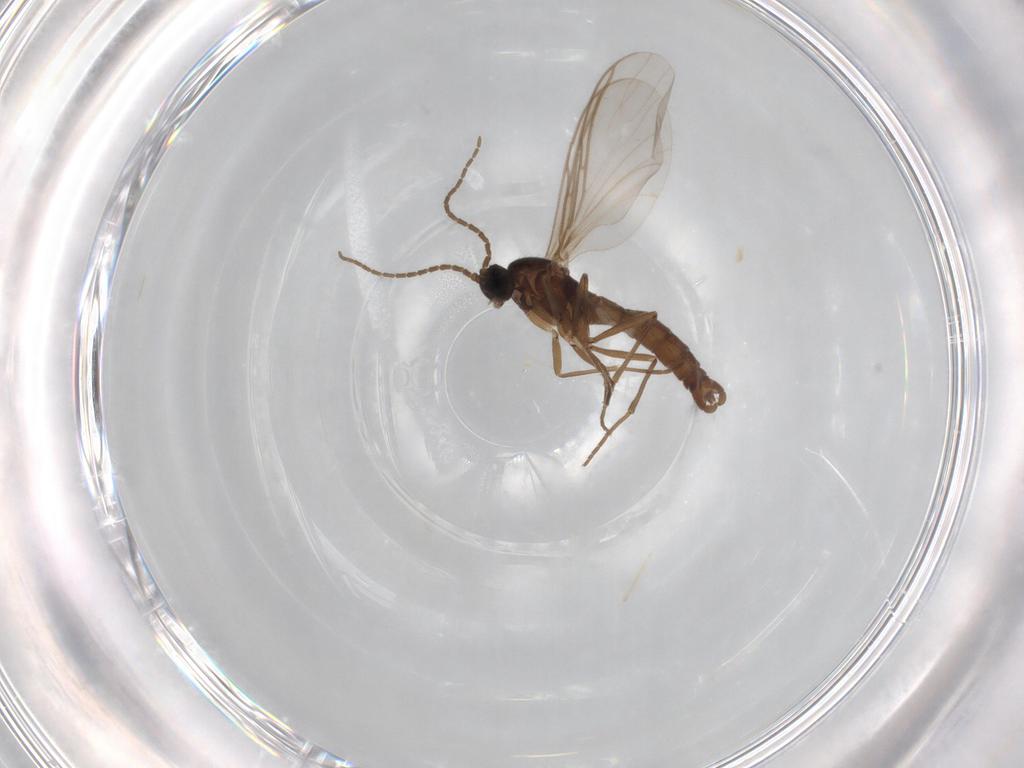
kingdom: Animalia
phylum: Arthropoda
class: Insecta
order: Diptera
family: Sciaridae
